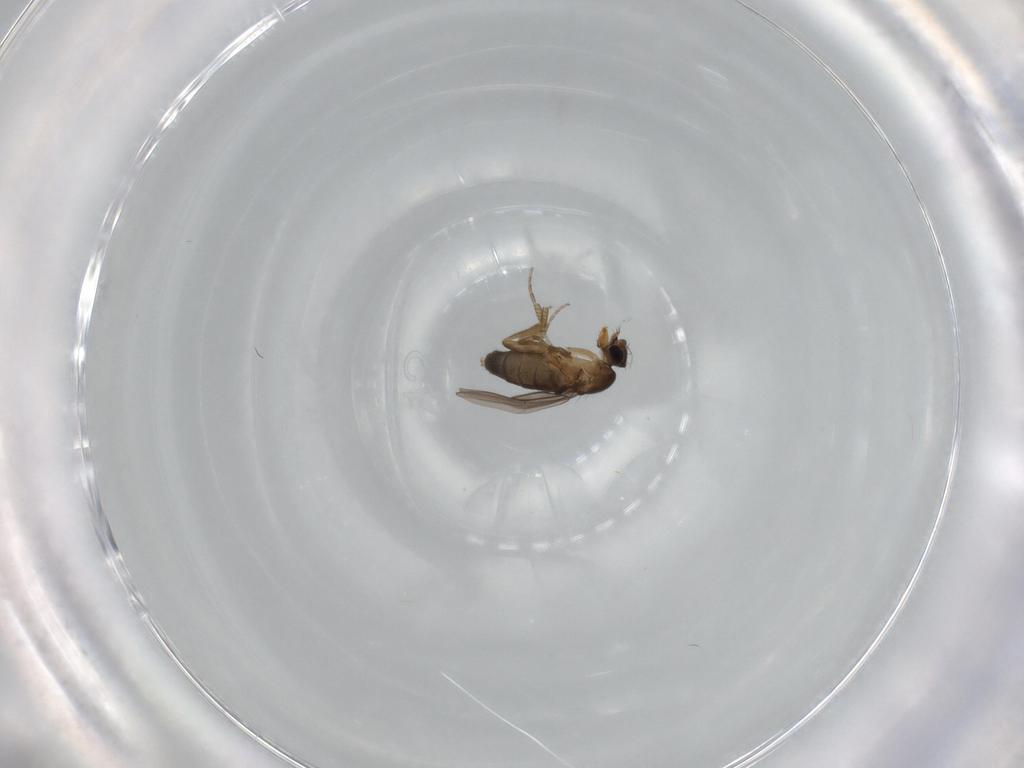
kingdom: Animalia
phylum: Arthropoda
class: Insecta
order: Diptera
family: Phoridae
